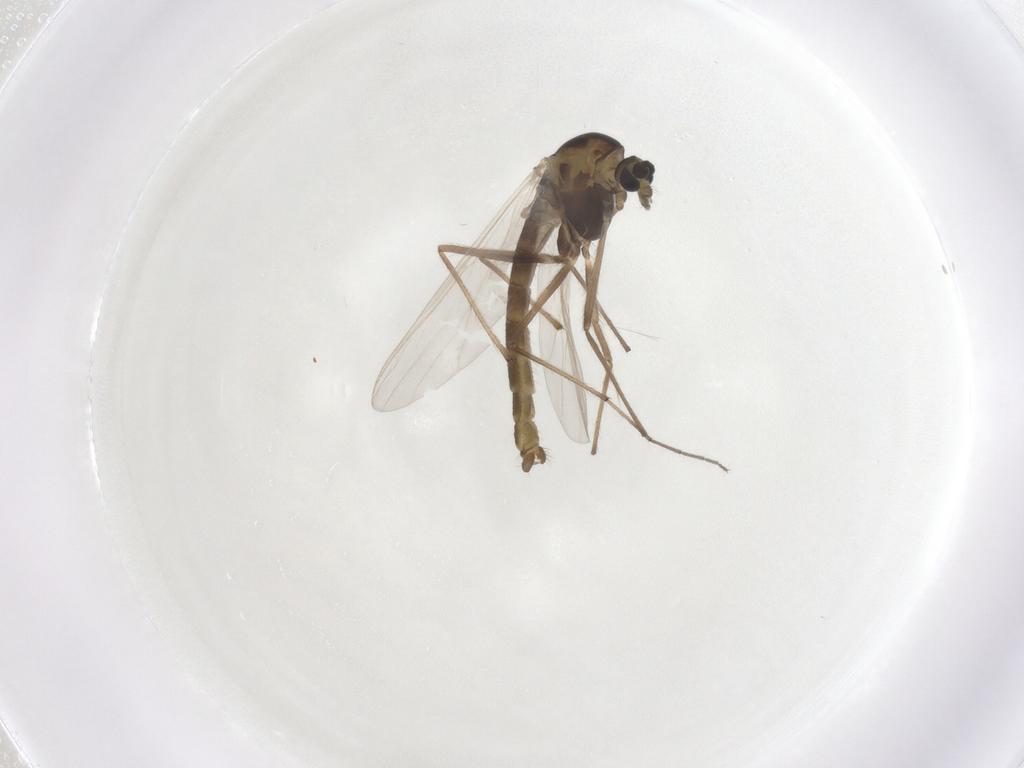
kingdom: Animalia
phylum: Arthropoda
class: Insecta
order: Diptera
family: Chironomidae
